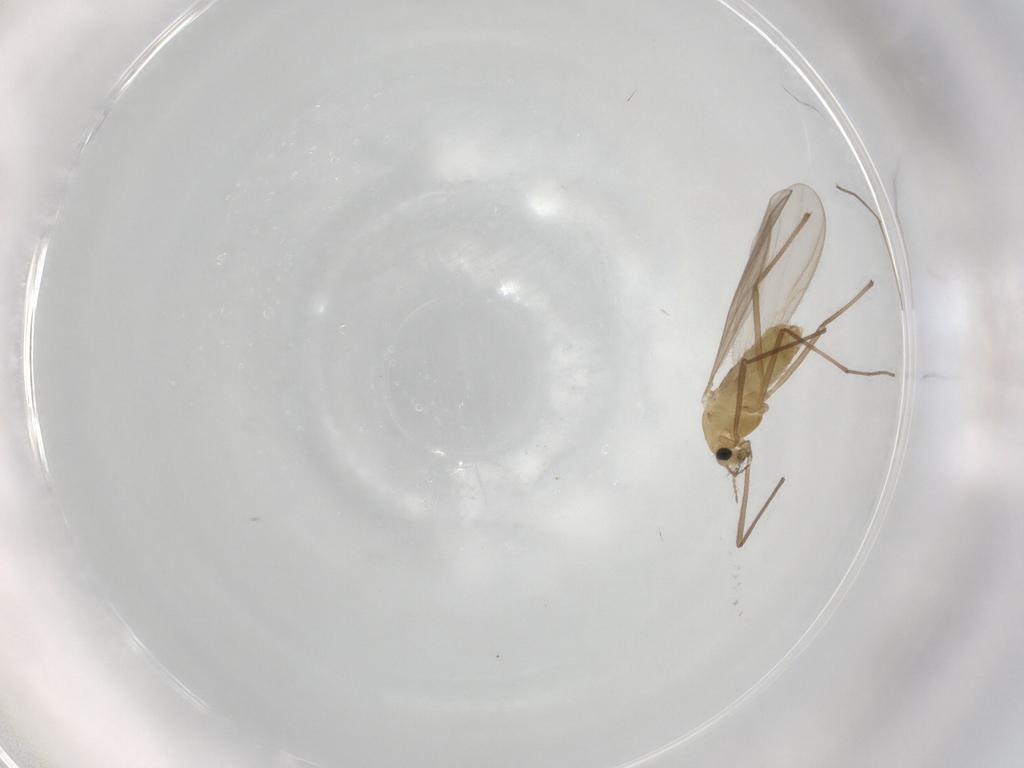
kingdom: Animalia
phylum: Arthropoda
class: Insecta
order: Diptera
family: Chironomidae
